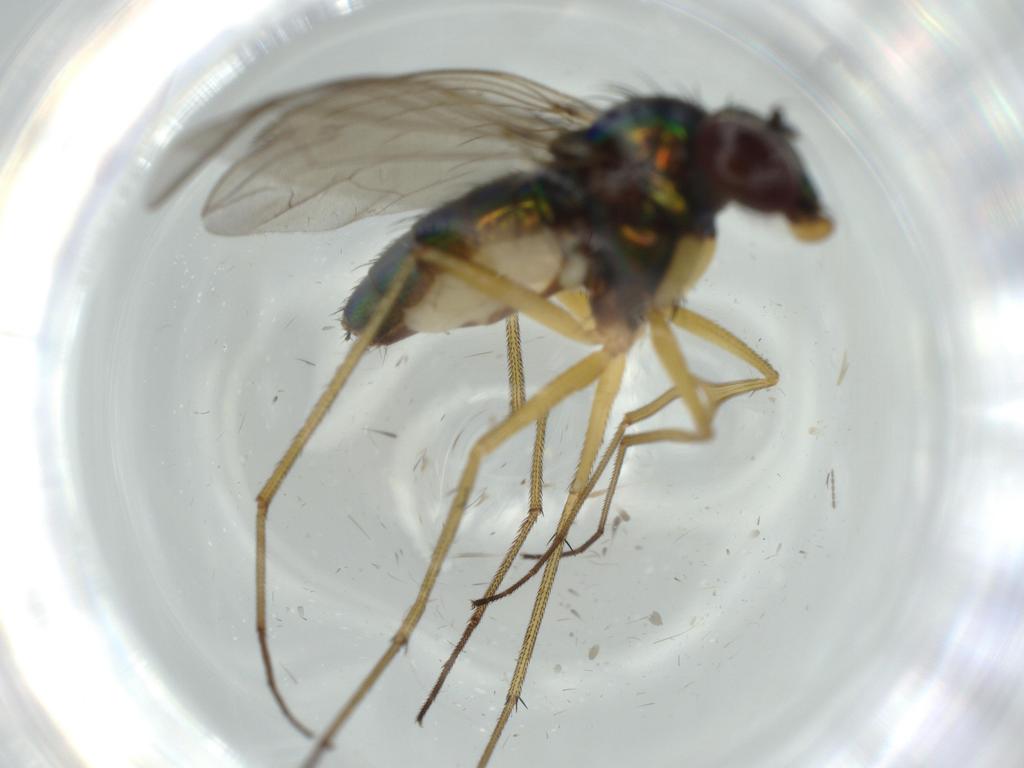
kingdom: Animalia
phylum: Arthropoda
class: Insecta
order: Diptera
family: Dolichopodidae
